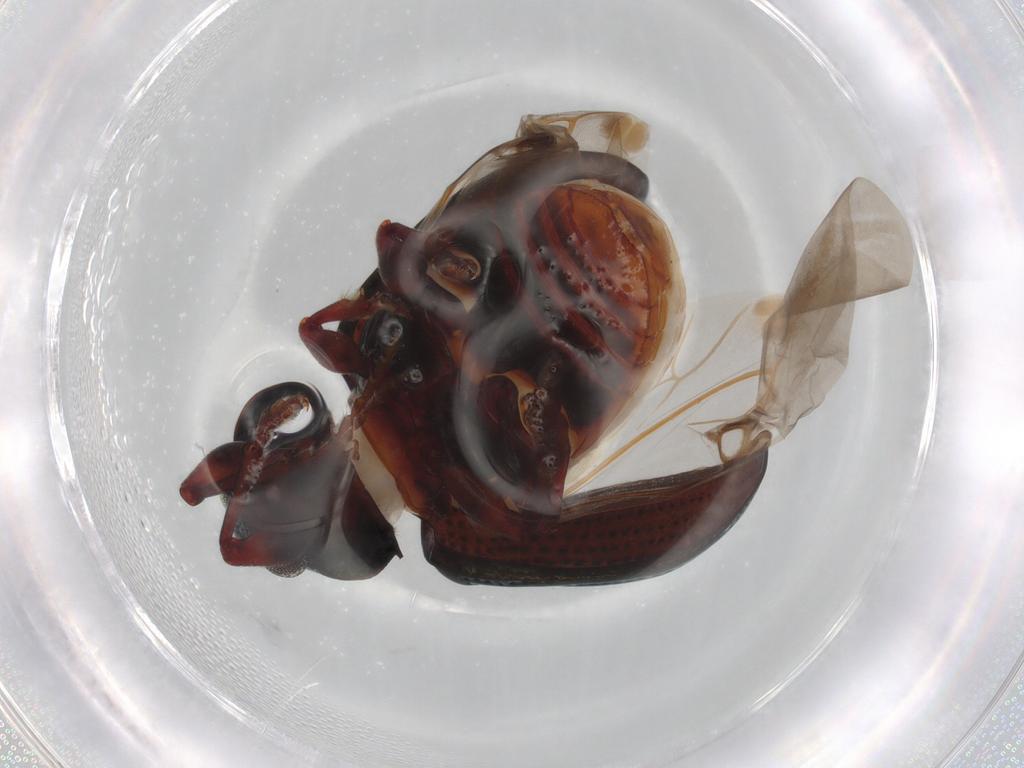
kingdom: Animalia
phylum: Arthropoda
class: Insecta
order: Coleoptera
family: Chrysomelidae
